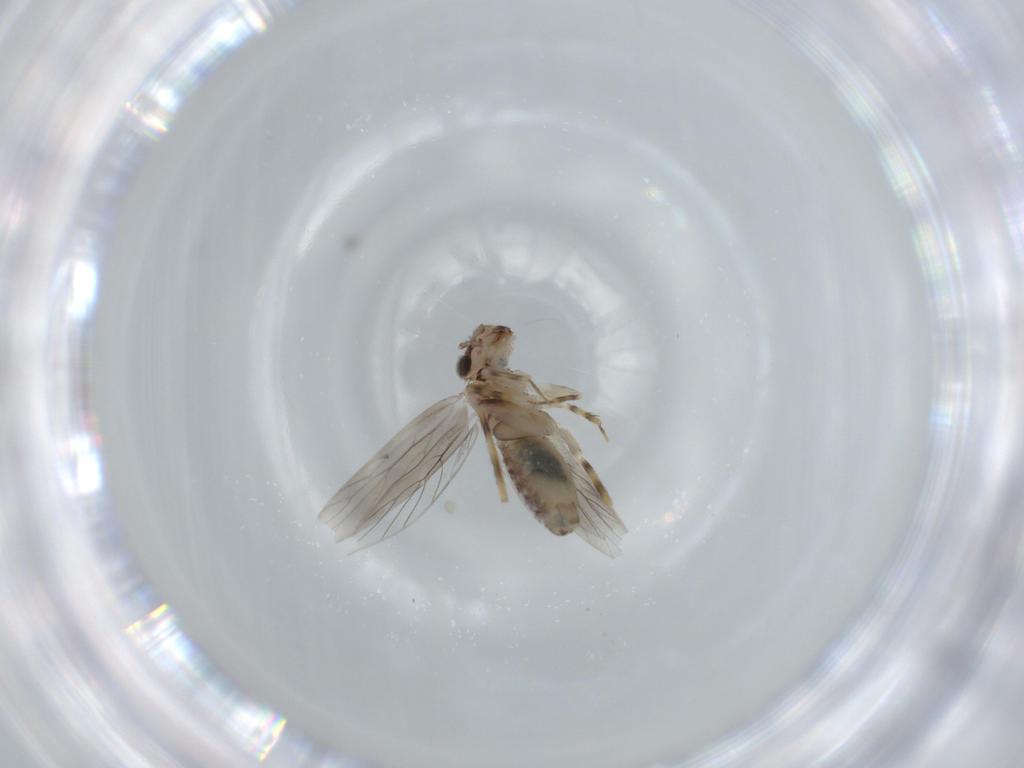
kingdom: Animalia
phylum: Arthropoda
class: Insecta
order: Psocodea
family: Lepidopsocidae
